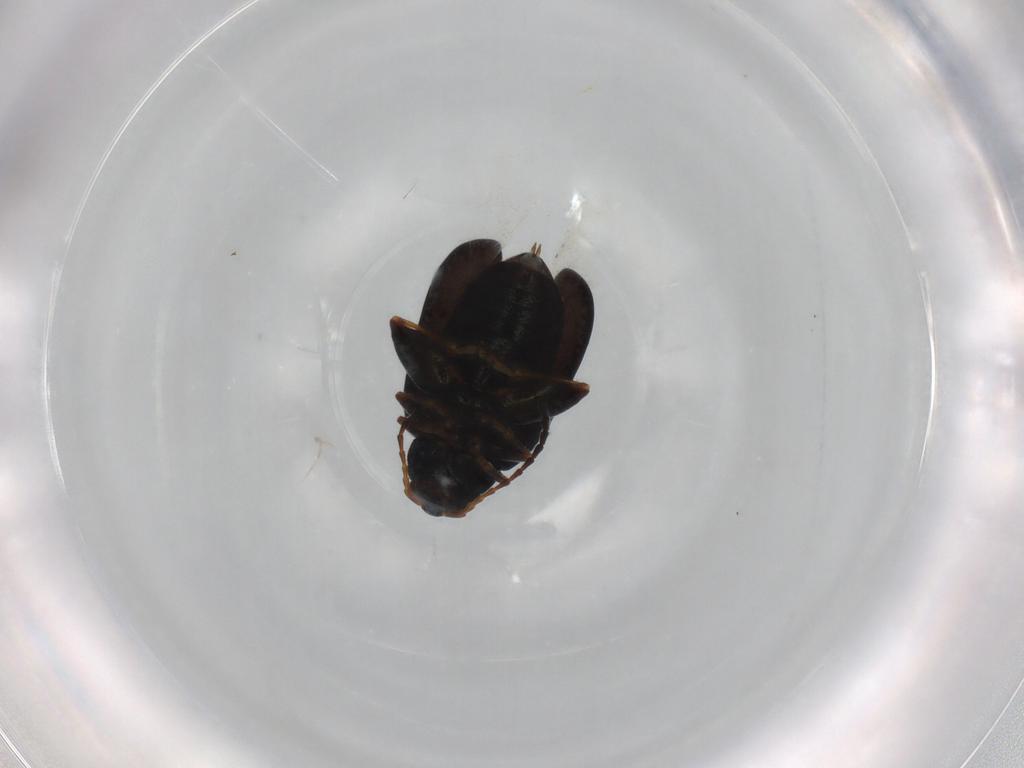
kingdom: Animalia
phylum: Arthropoda
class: Insecta
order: Coleoptera
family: Chrysomelidae
